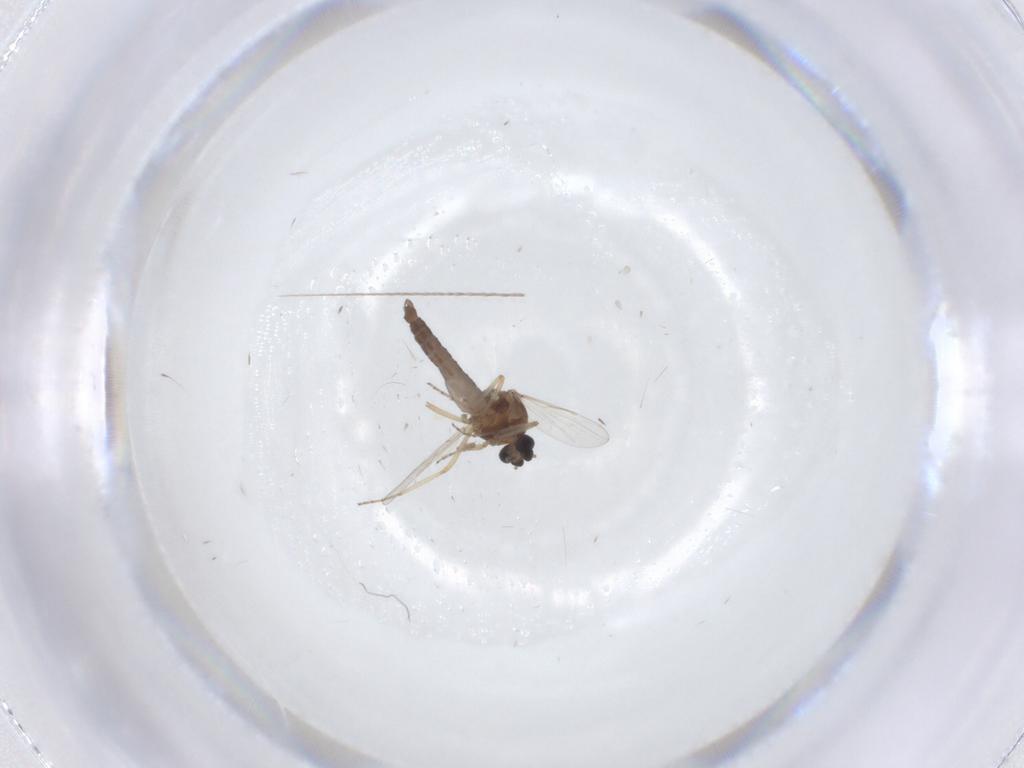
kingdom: Animalia
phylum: Arthropoda
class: Insecta
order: Diptera
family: Ceratopogonidae
